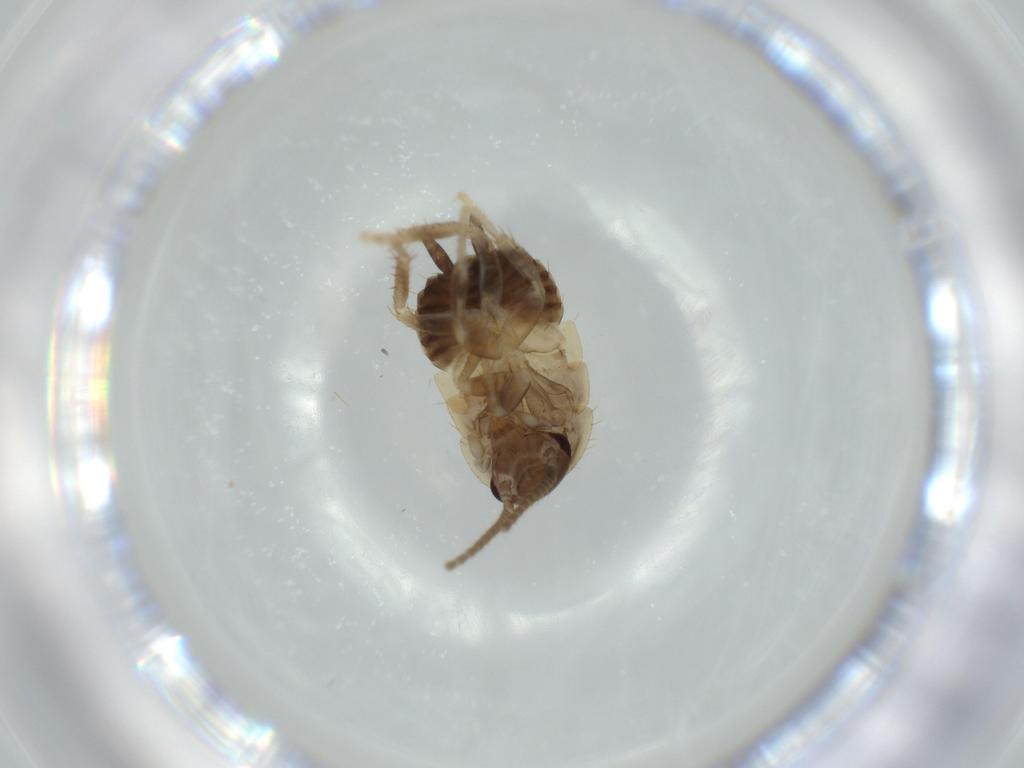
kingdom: Animalia
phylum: Arthropoda
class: Insecta
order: Blattodea
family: Ectobiidae
